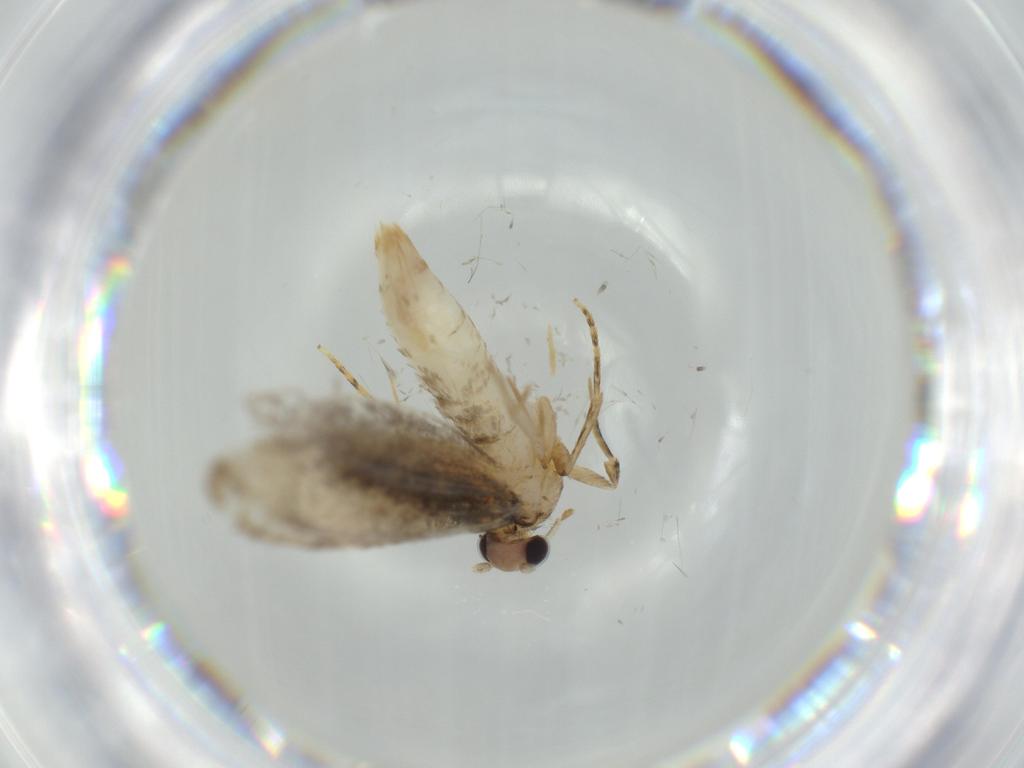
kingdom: Animalia
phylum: Arthropoda
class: Insecta
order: Lepidoptera
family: Tineidae
